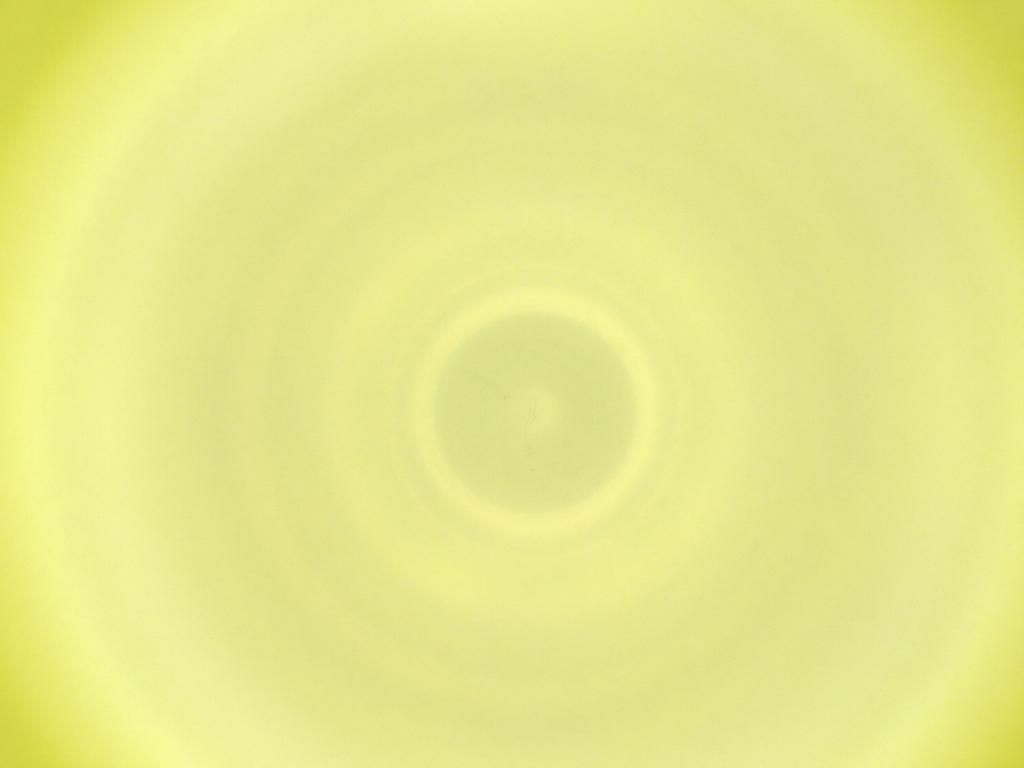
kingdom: Animalia
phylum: Arthropoda
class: Insecta
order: Diptera
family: Cecidomyiidae
